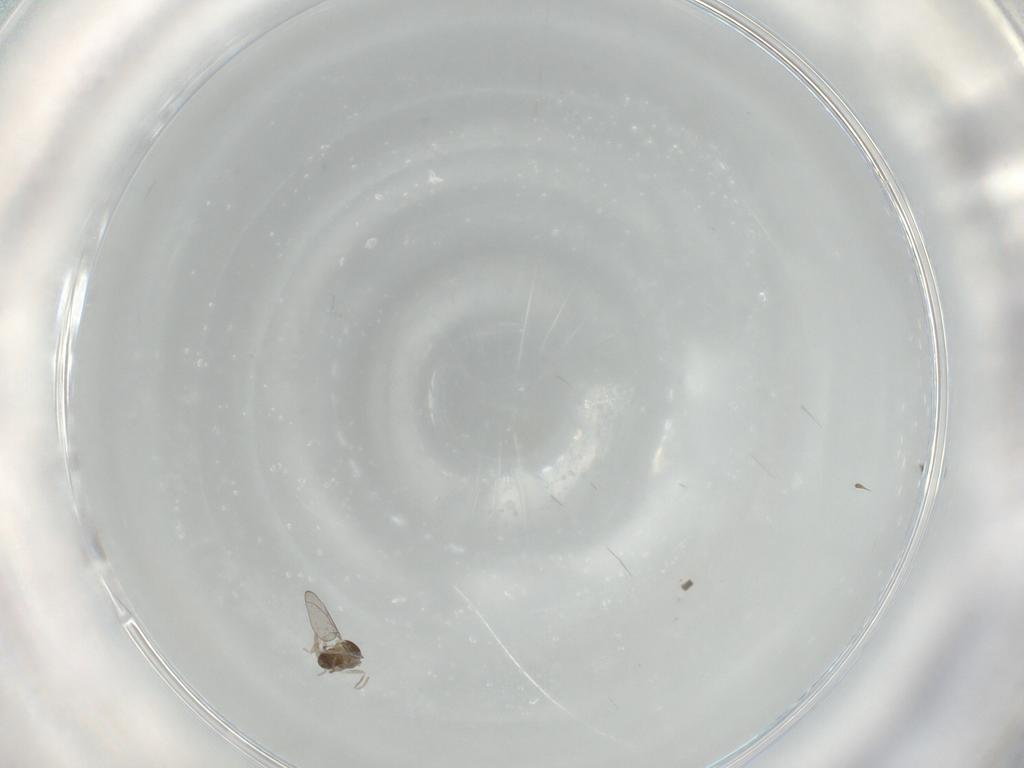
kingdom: Animalia
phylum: Arthropoda
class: Insecta
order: Diptera
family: Cecidomyiidae
